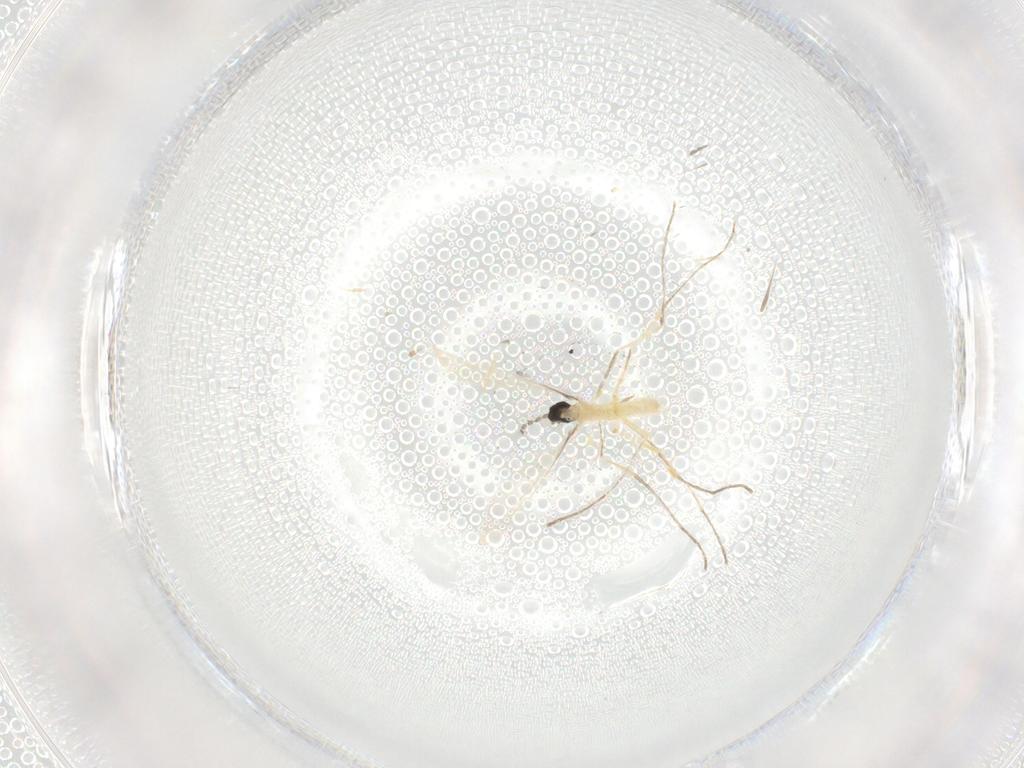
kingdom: Animalia
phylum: Arthropoda
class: Insecta
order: Diptera
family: Cecidomyiidae
